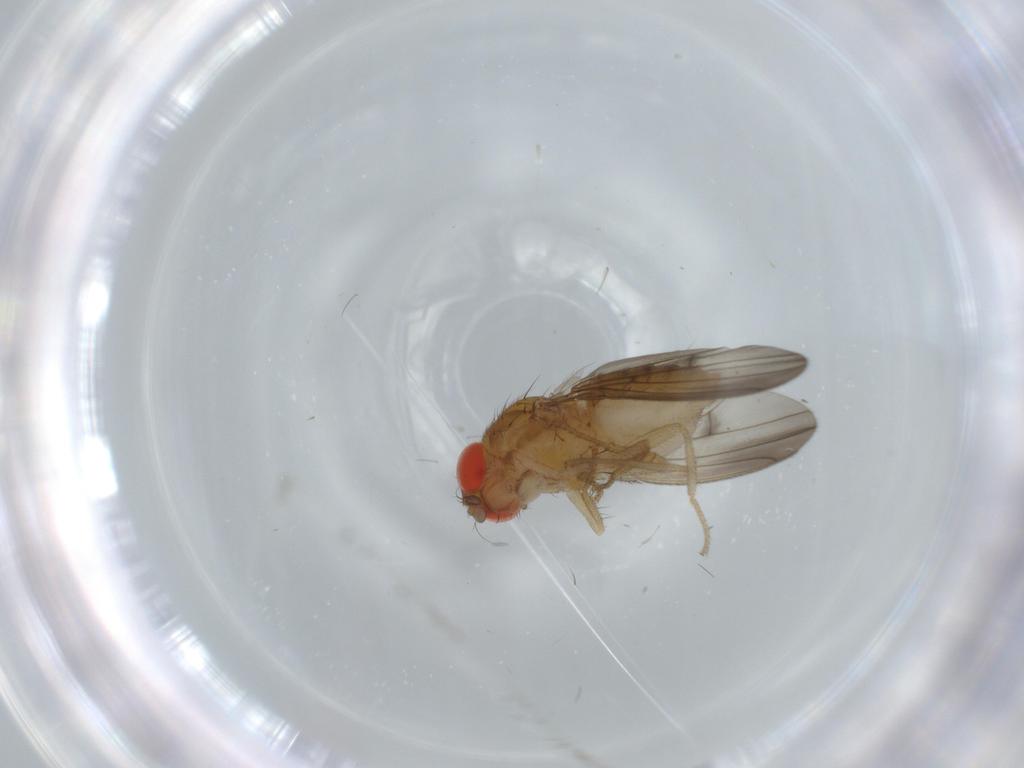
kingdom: Animalia
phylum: Arthropoda
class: Insecta
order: Diptera
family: Drosophilidae
